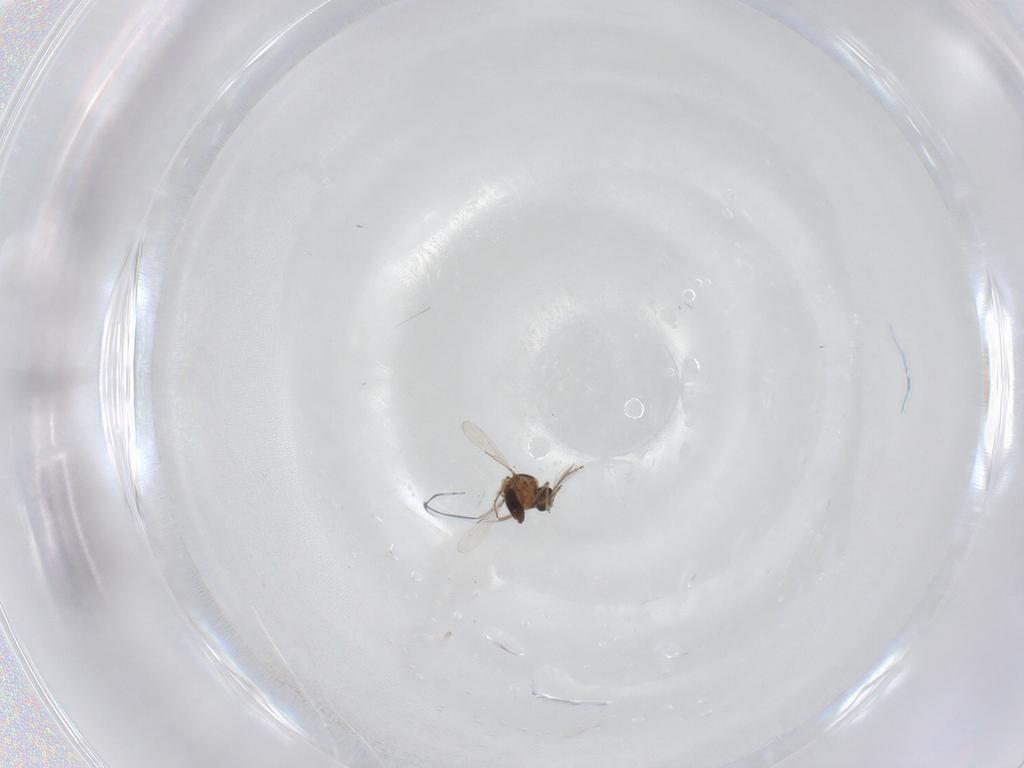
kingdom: Animalia
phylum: Arthropoda
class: Insecta
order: Diptera
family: Ceratopogonidae
